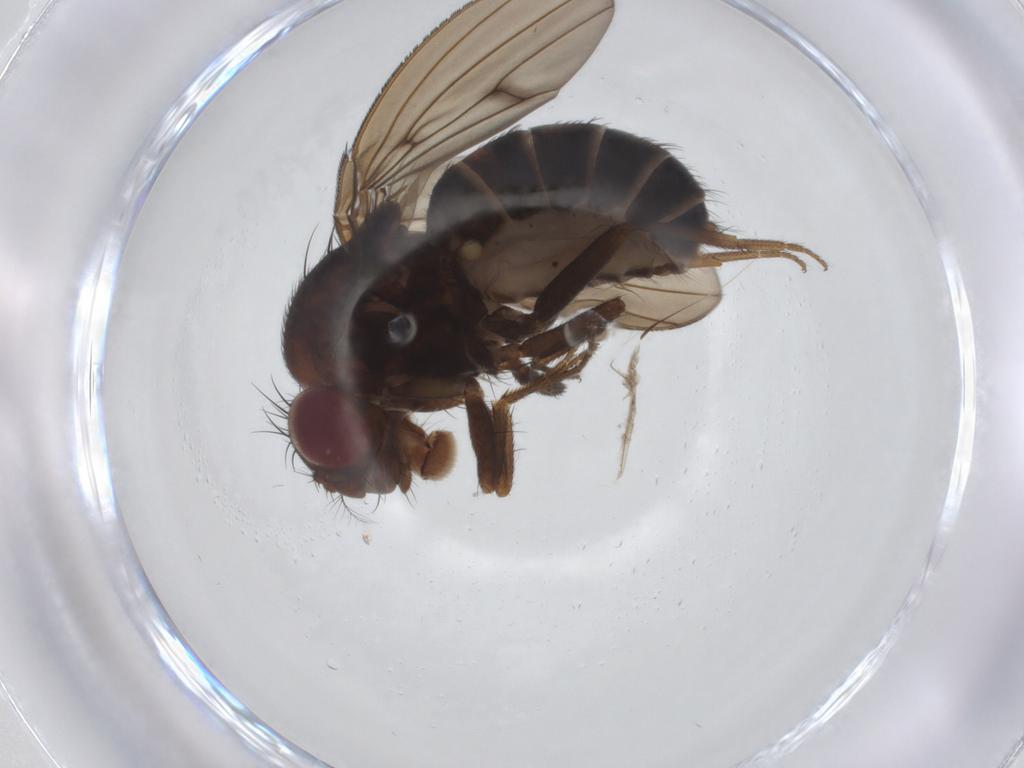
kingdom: Animalia
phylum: Arthropoda
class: Insecta
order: Diptera
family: Drosophilidae
